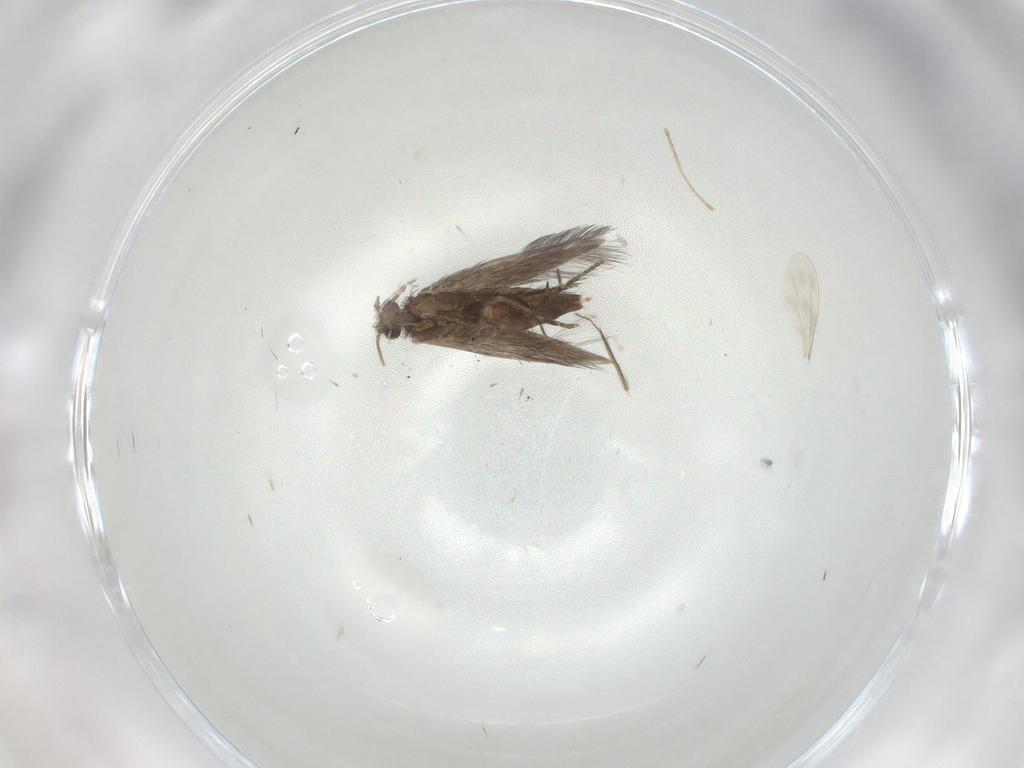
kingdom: Animalia
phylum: Arthropoda
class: Insecta
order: Trichoptera
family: Hydroptilidae
